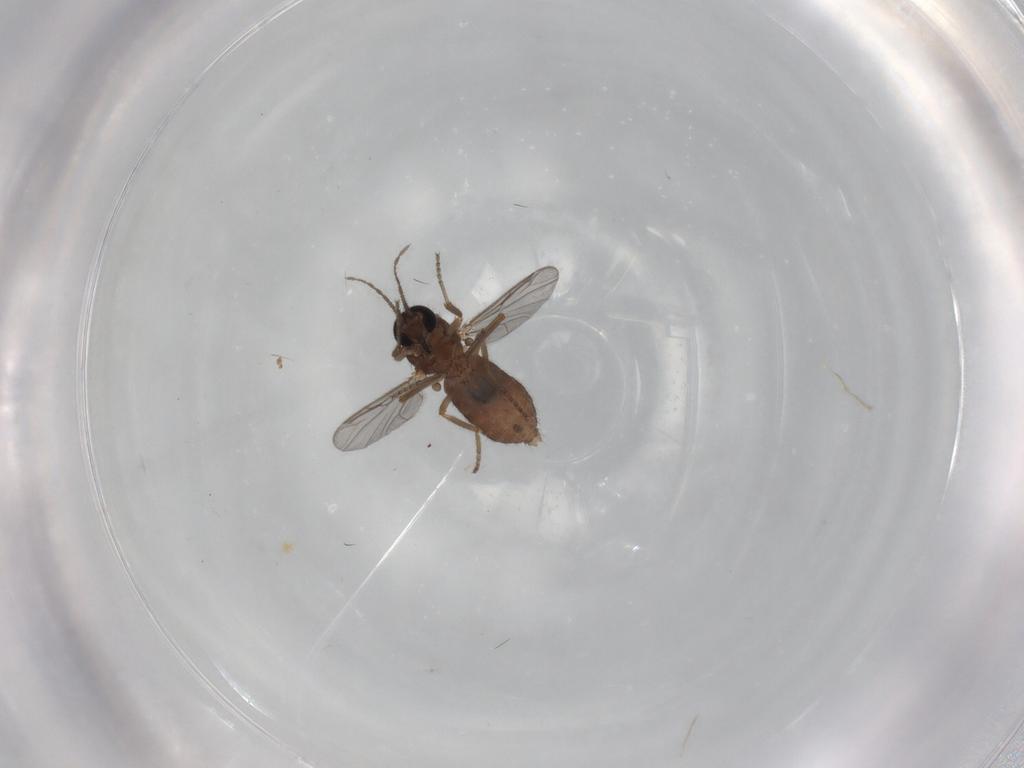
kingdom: Animalia
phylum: Arthropoda
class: Insecta
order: Diptera
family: Ceratopogonidae
